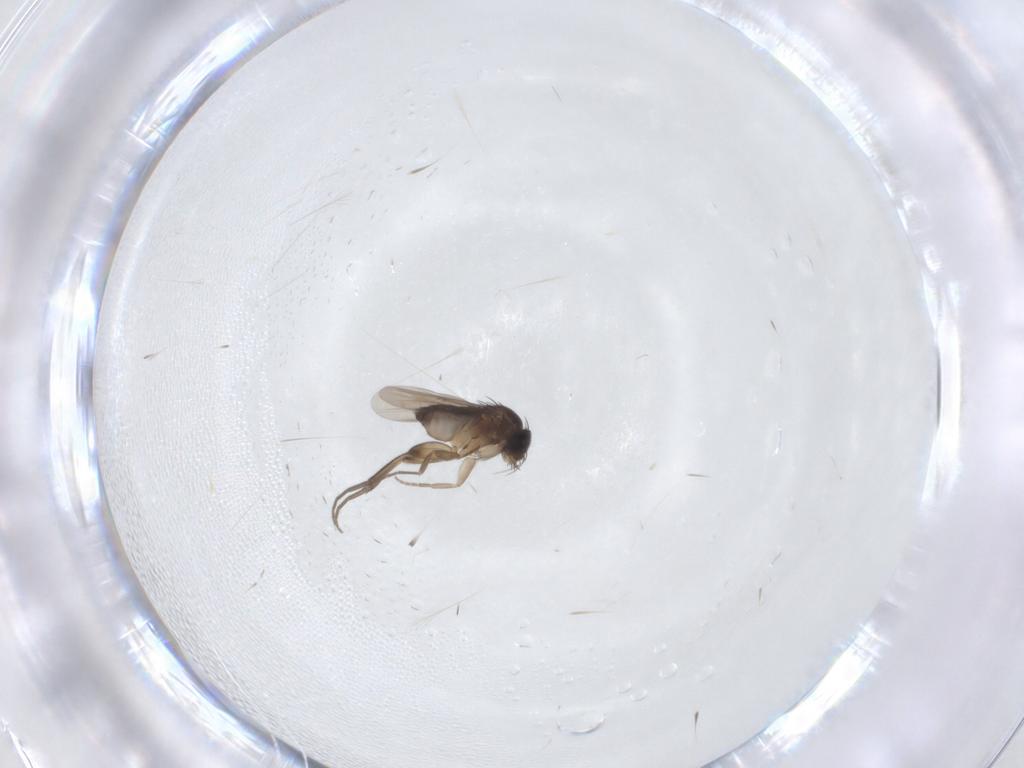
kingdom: Animalia
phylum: Arthropoda
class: Insecta
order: Diptera
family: Phoridae
